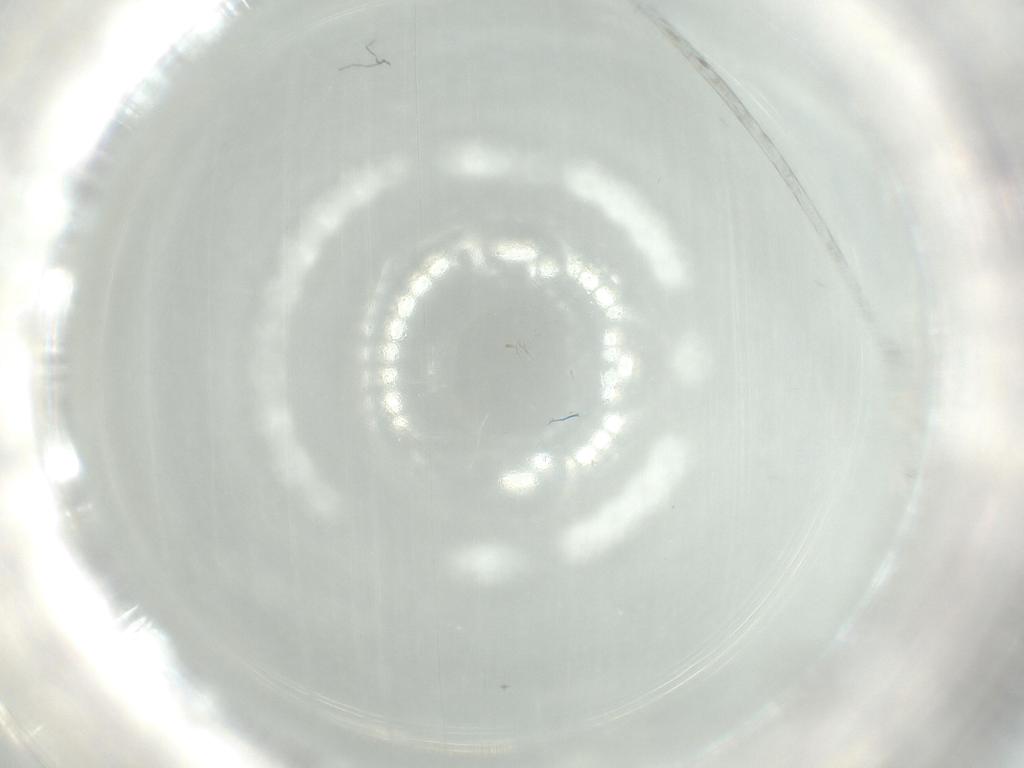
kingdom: Animalia
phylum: Arthropoda
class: Insecta
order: Diptera
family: Cecidomyiidae
